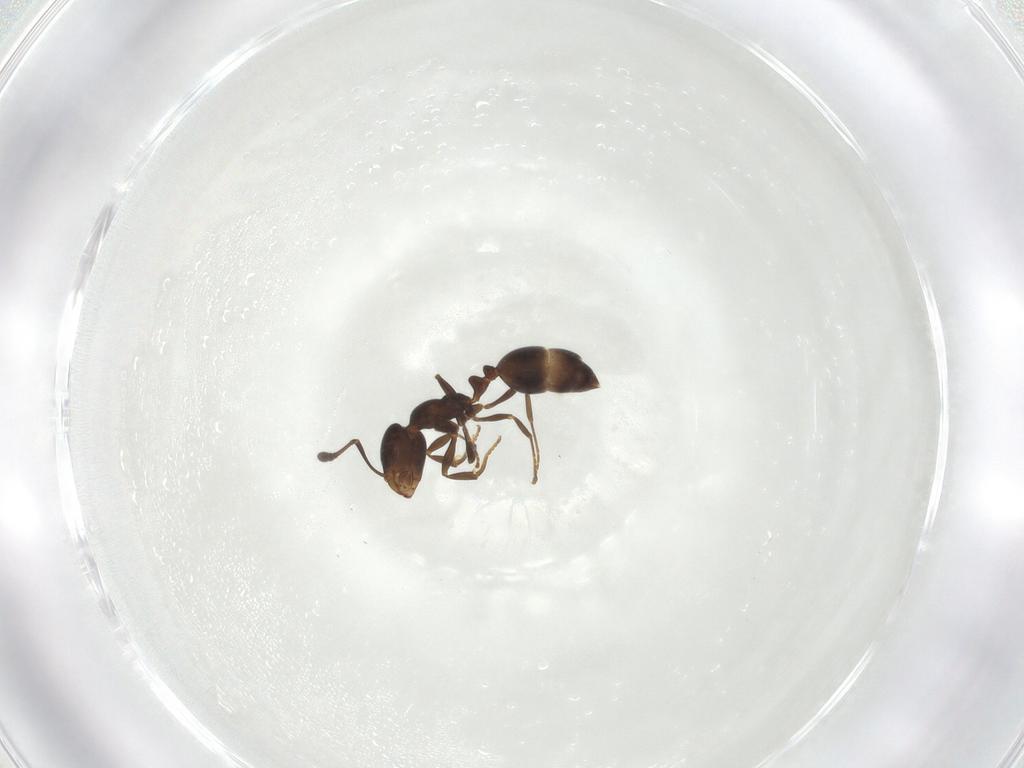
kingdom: Animalia
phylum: Arthropoda
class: Insecta
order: Hymenoptera
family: Formicidae
